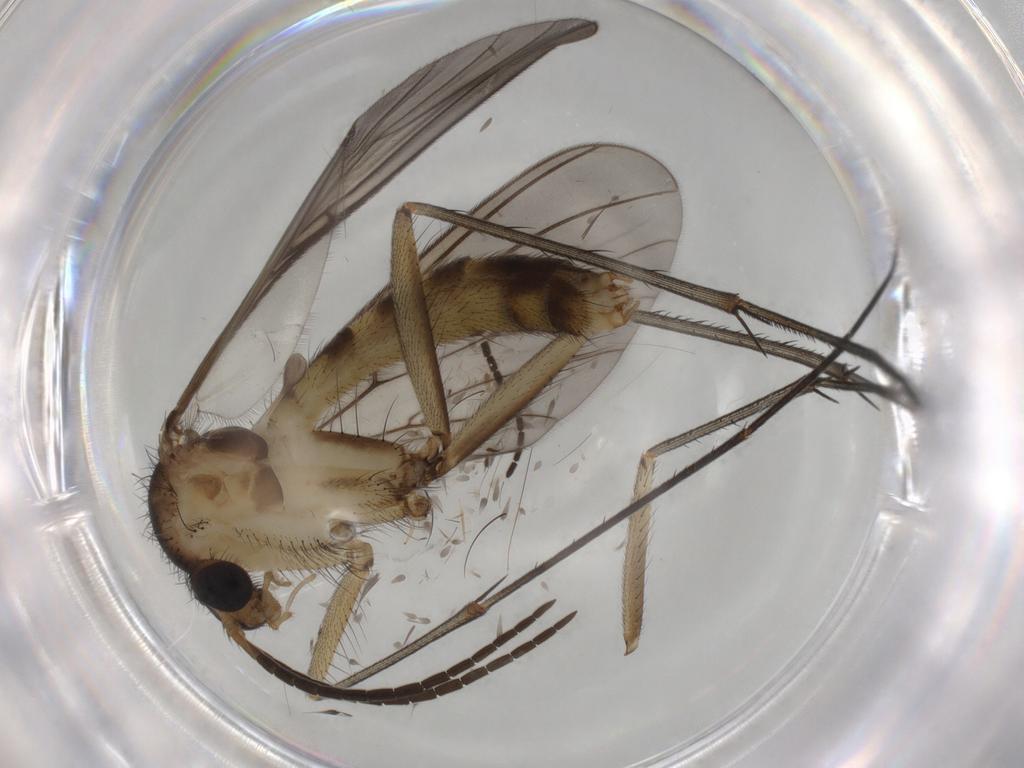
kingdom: Animalia
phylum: Arthropoda
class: Insecta
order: Diptera
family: Mycetophilidae
